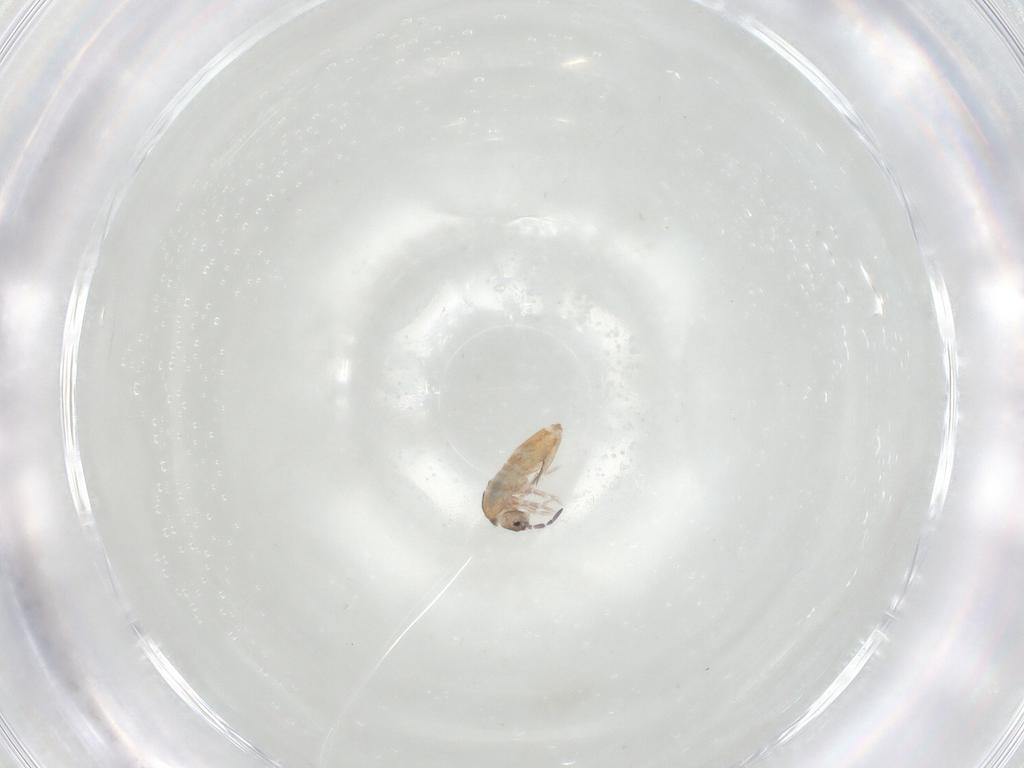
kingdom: Animalia
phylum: Arthropoda
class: Collembola
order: Entomobryomorpha
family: Entomobryidae
